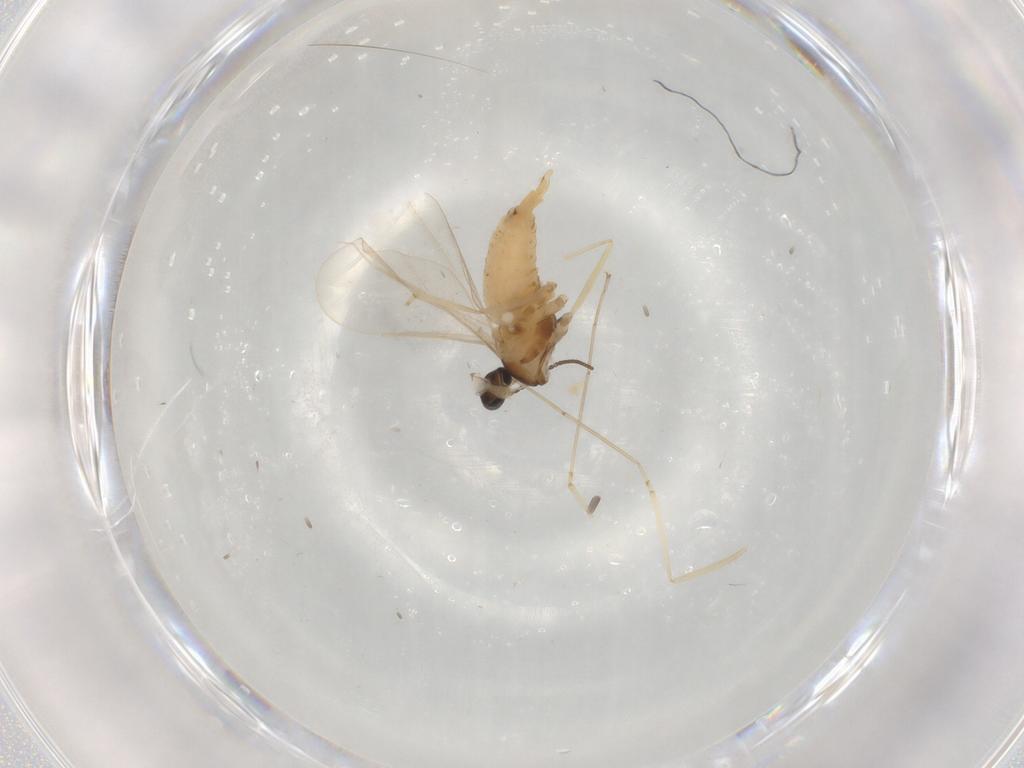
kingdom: Animalia
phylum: Arthropoda
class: Insecta
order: Diptera
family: Cecidomyiidae
